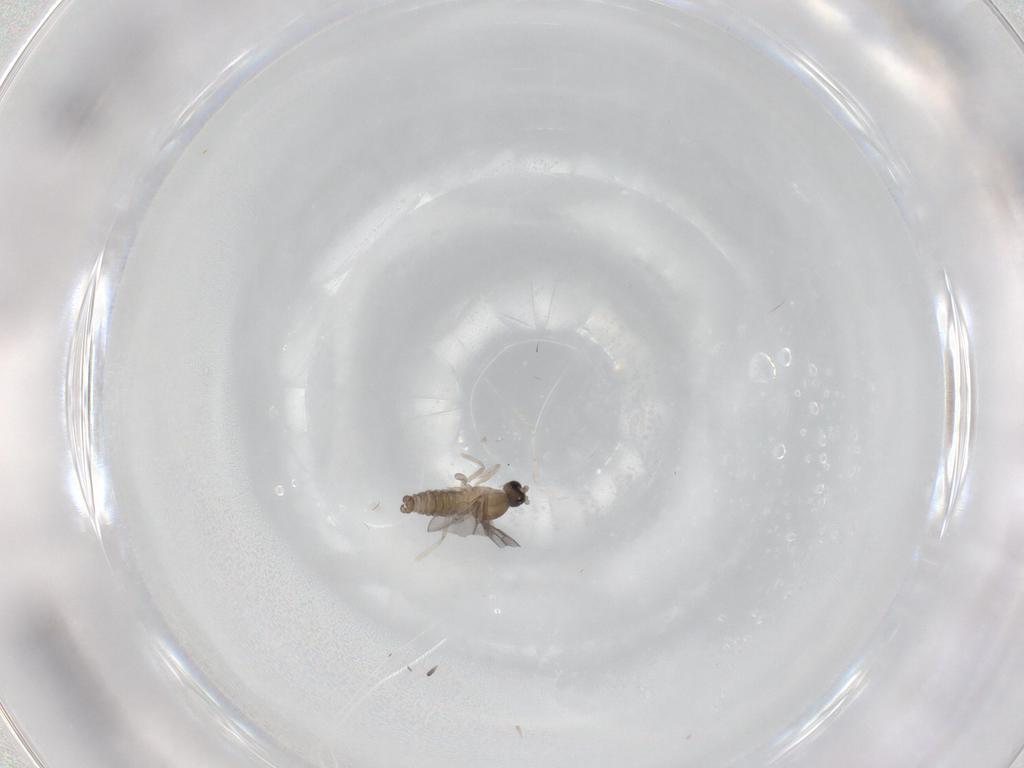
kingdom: Animalia
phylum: Arthropoda
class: Insecta
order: Diptera
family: Cecidomyiidae
